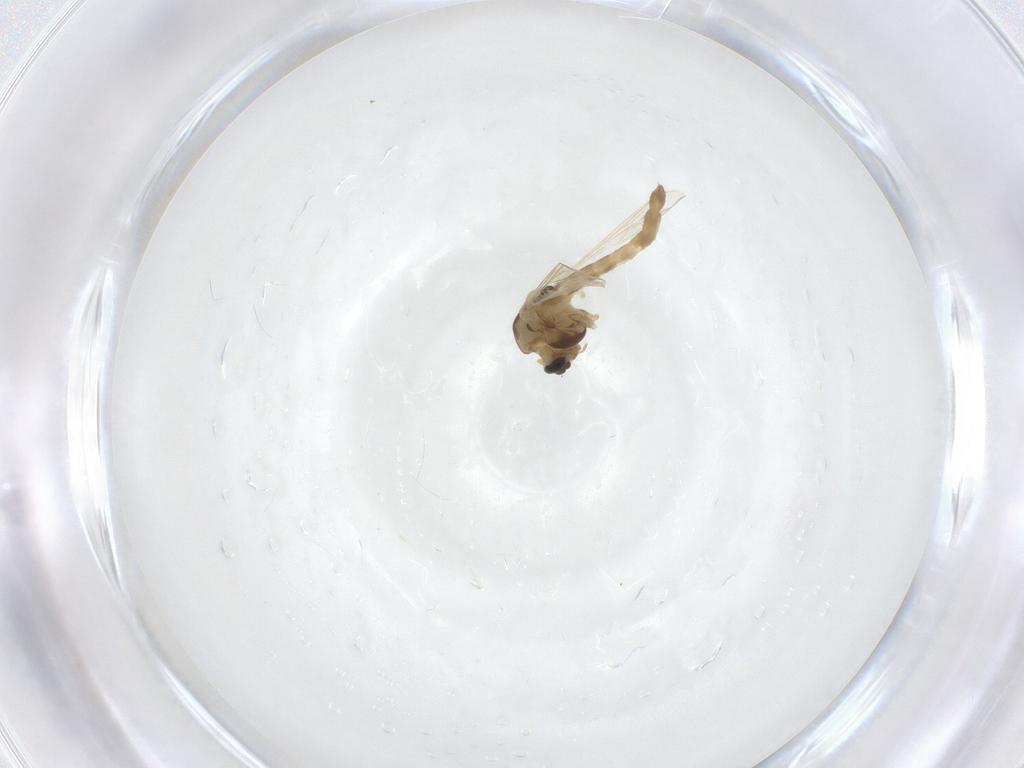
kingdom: Animalia
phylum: Arthropoda
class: Insecta
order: Diptera
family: Chironomidae
